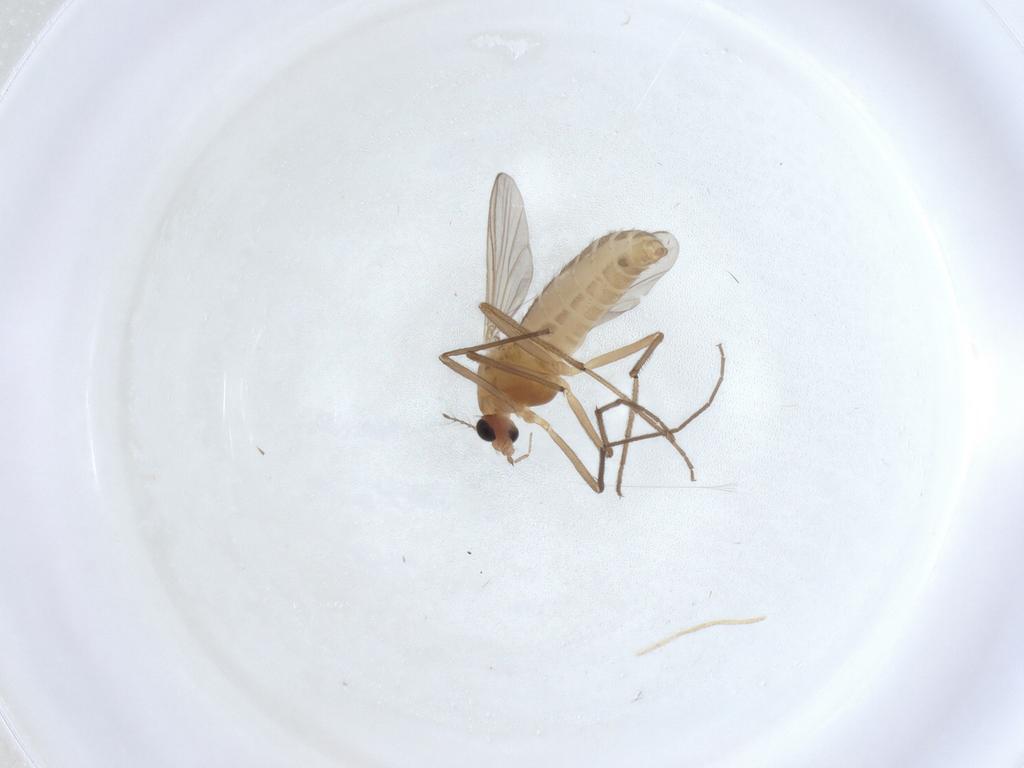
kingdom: Animalia
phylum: Arthropoda
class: Insecta
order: Diptera
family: Chironomidae
